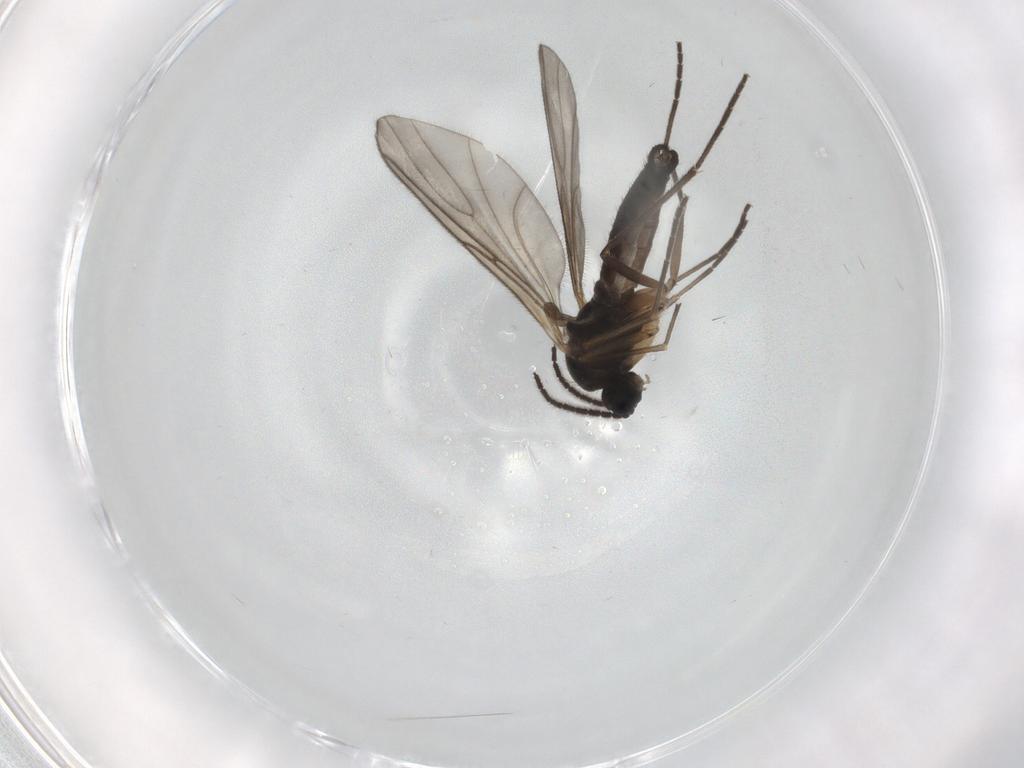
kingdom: Animalia
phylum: Arthropoda
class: Insecta
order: Diptera
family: Sciaridae
